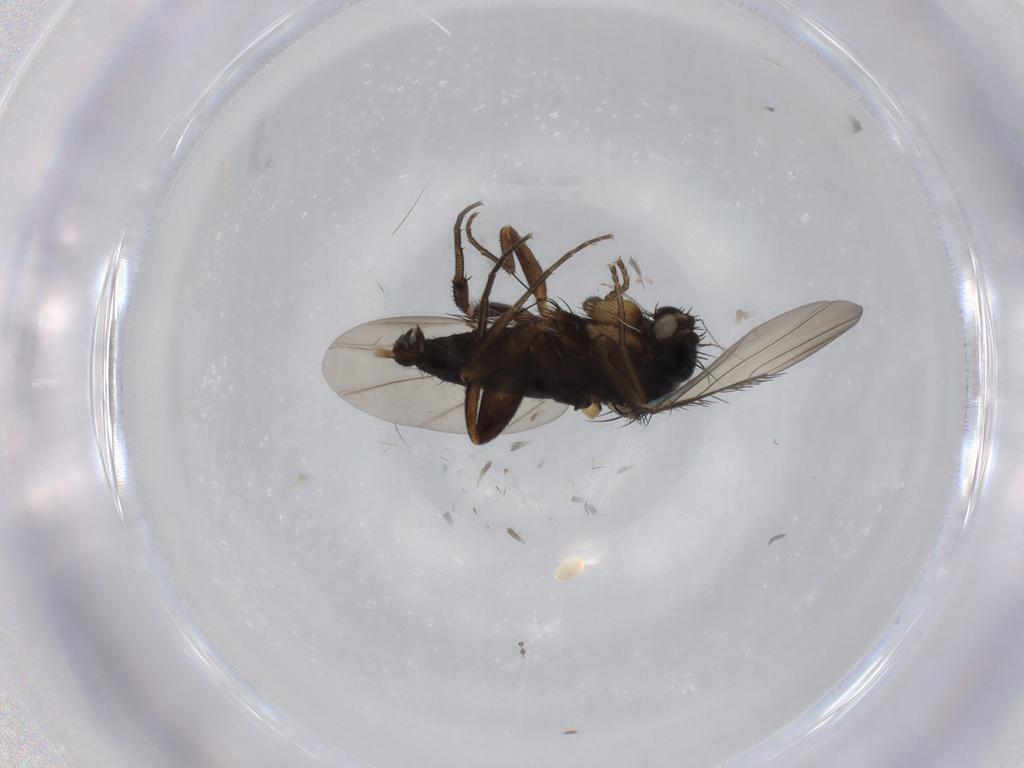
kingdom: Animalia
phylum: Arthropoda
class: Insecta
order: Diptera
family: Phoridae
